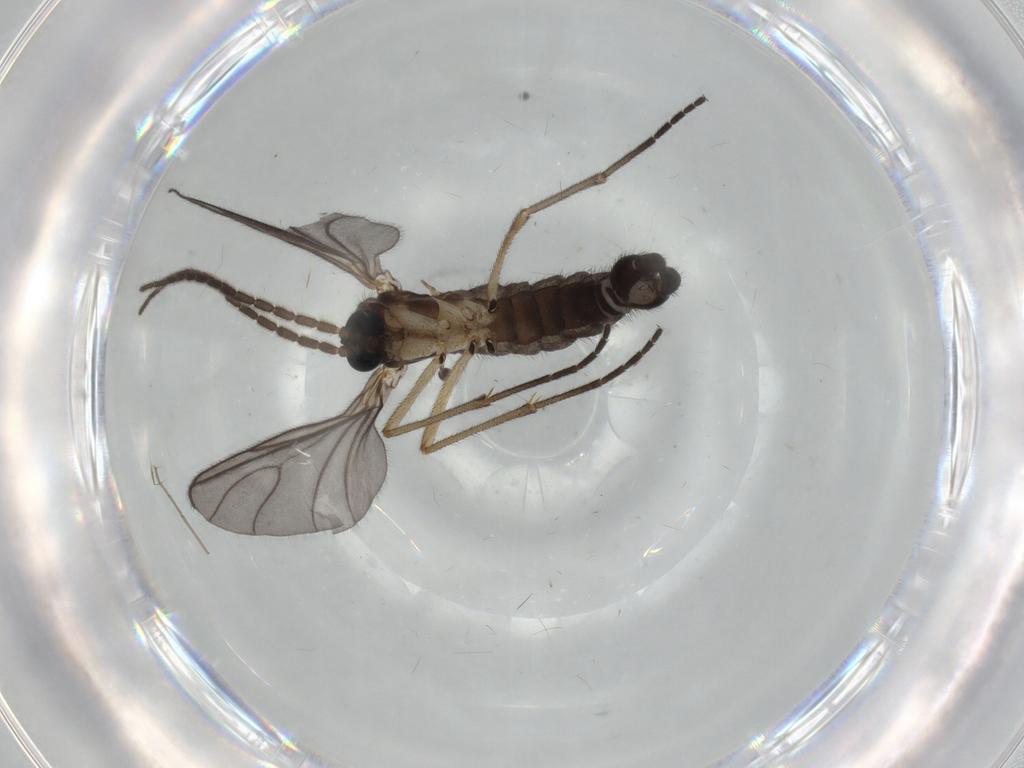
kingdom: Animalia
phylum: Arthropoda
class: Insecta
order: Diptera
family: Sciaridae
